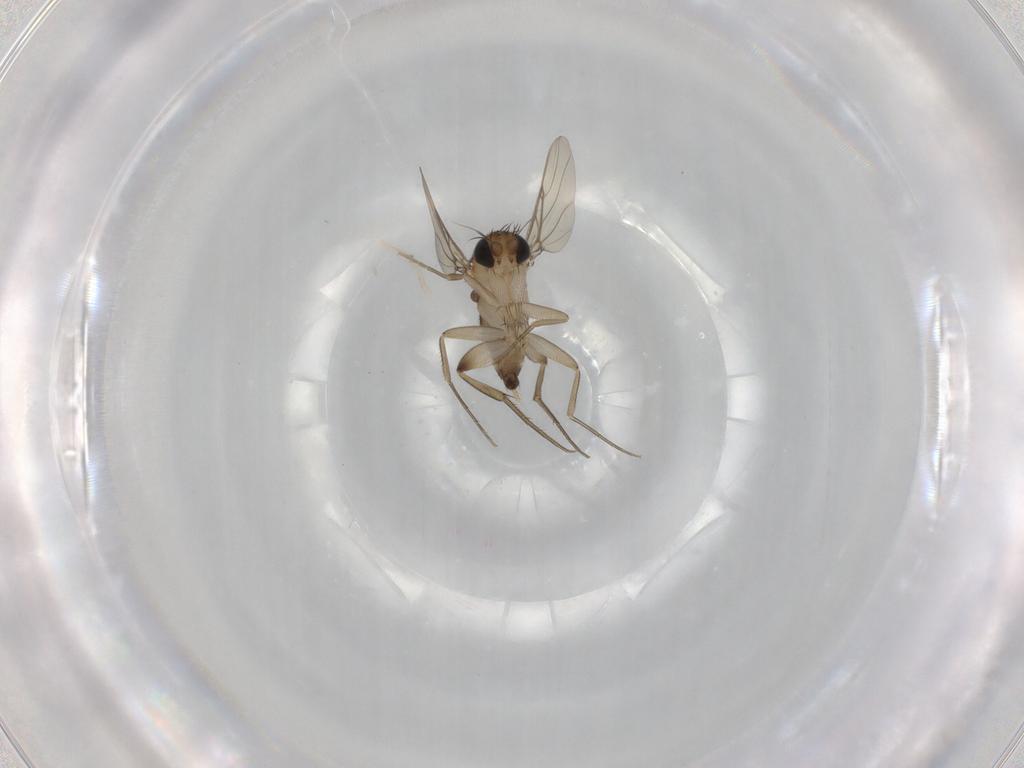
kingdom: Animalia
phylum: Arthropoda
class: Insecta
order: Diptera
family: Phoridae
